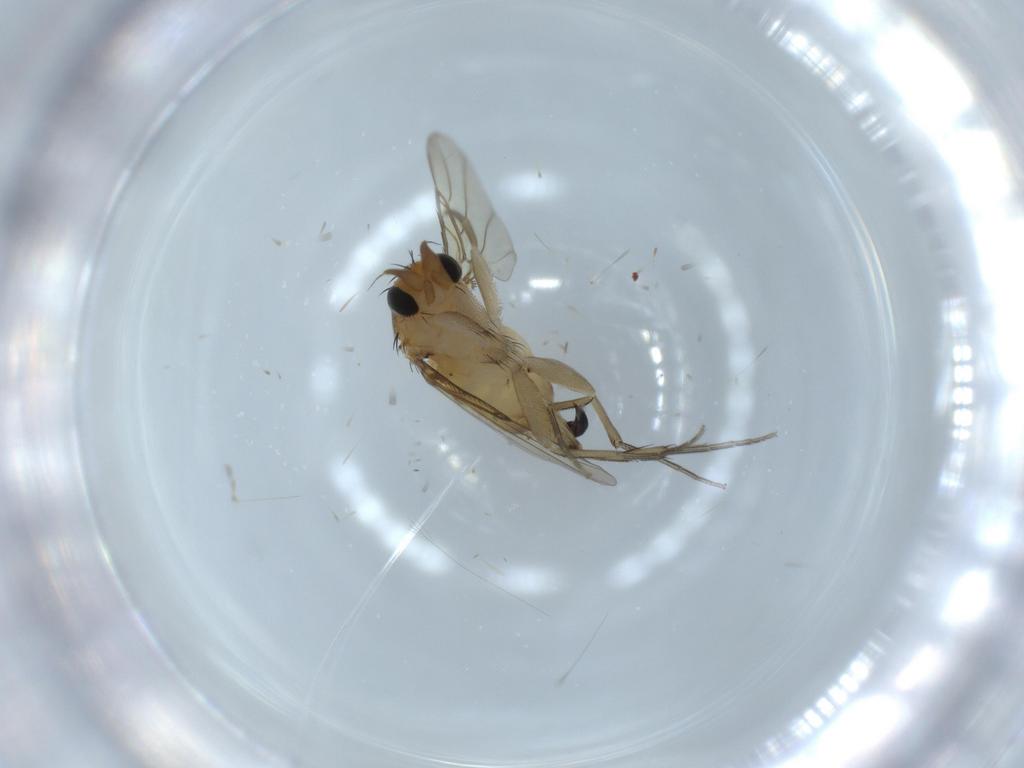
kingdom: Animalia
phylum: Arthropoda
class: Insecta
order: Diptera
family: Phoridae
